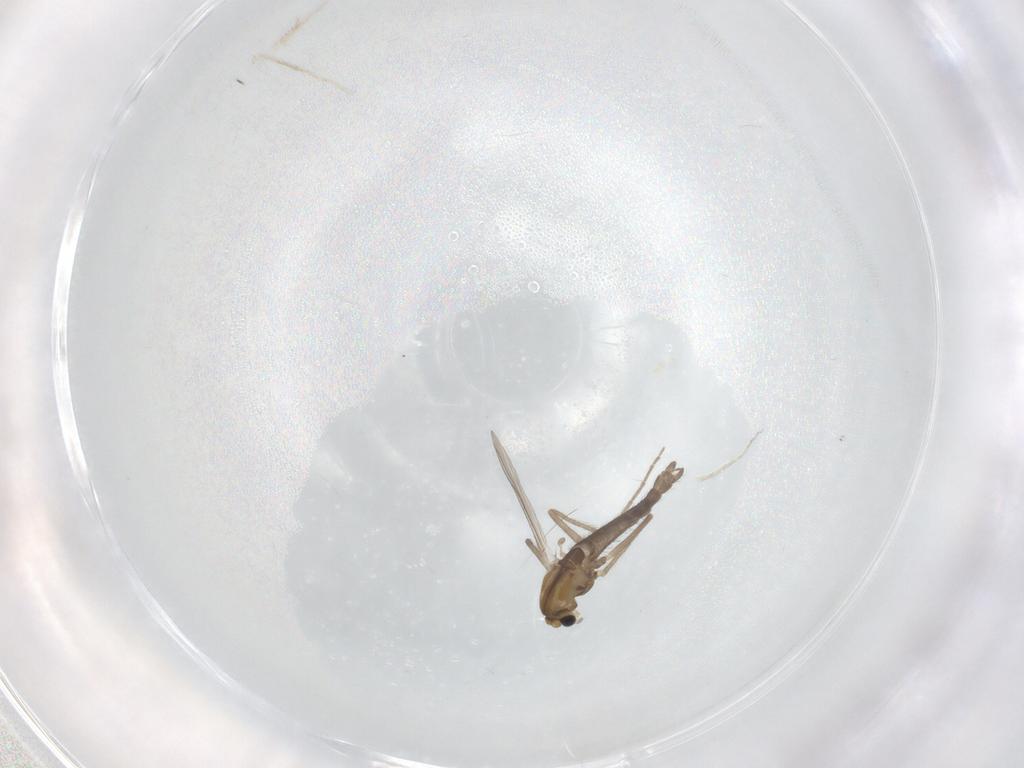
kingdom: Animalia
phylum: Arthropoda
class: Insecta
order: Diptera
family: Chironomidae
